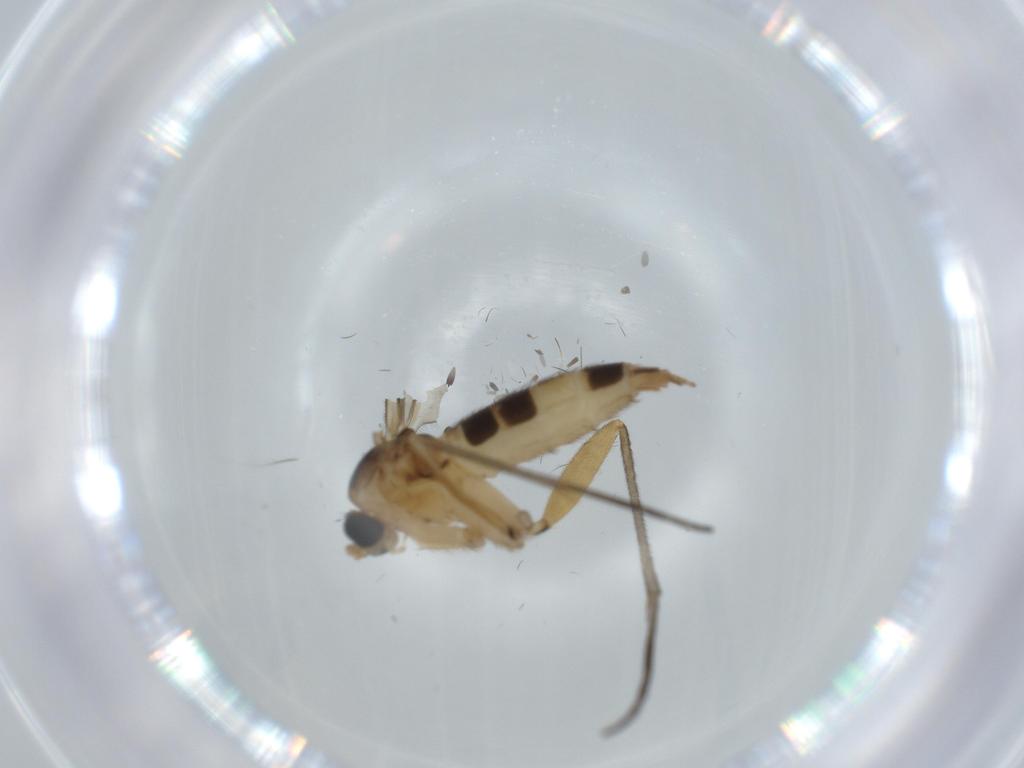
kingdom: Animalia
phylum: Arthropoda
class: Insecta
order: Diptera
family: Sciaridae
